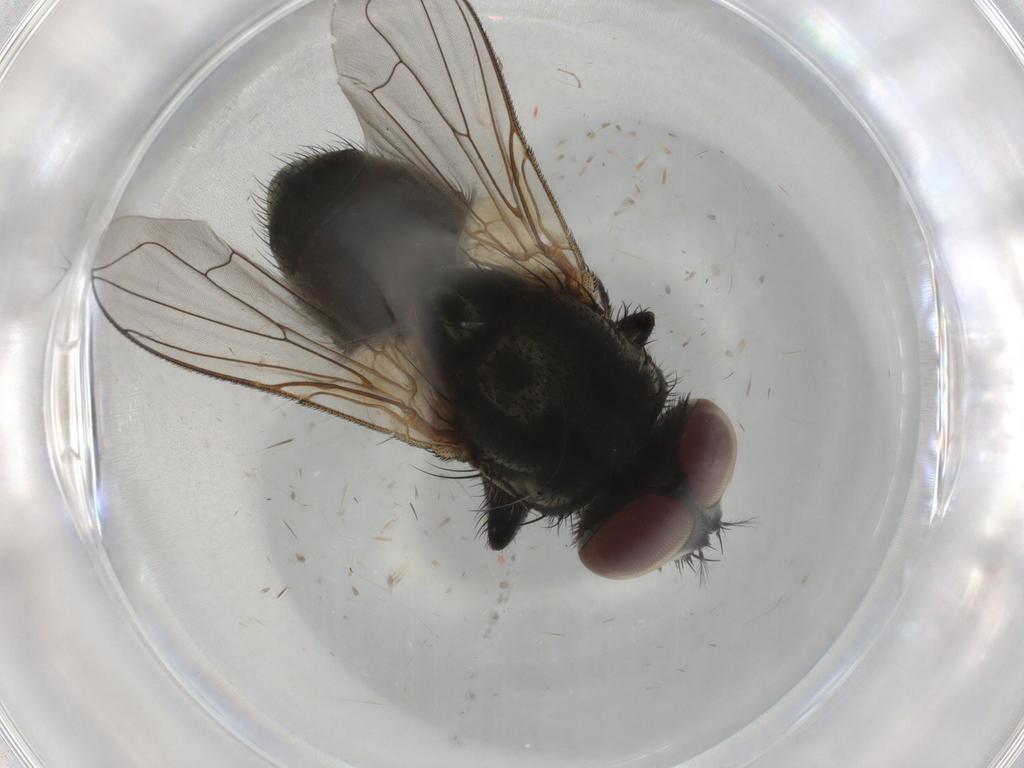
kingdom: Animalia
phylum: Arthropoda
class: Insecta
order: Diptera
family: Muscidae
